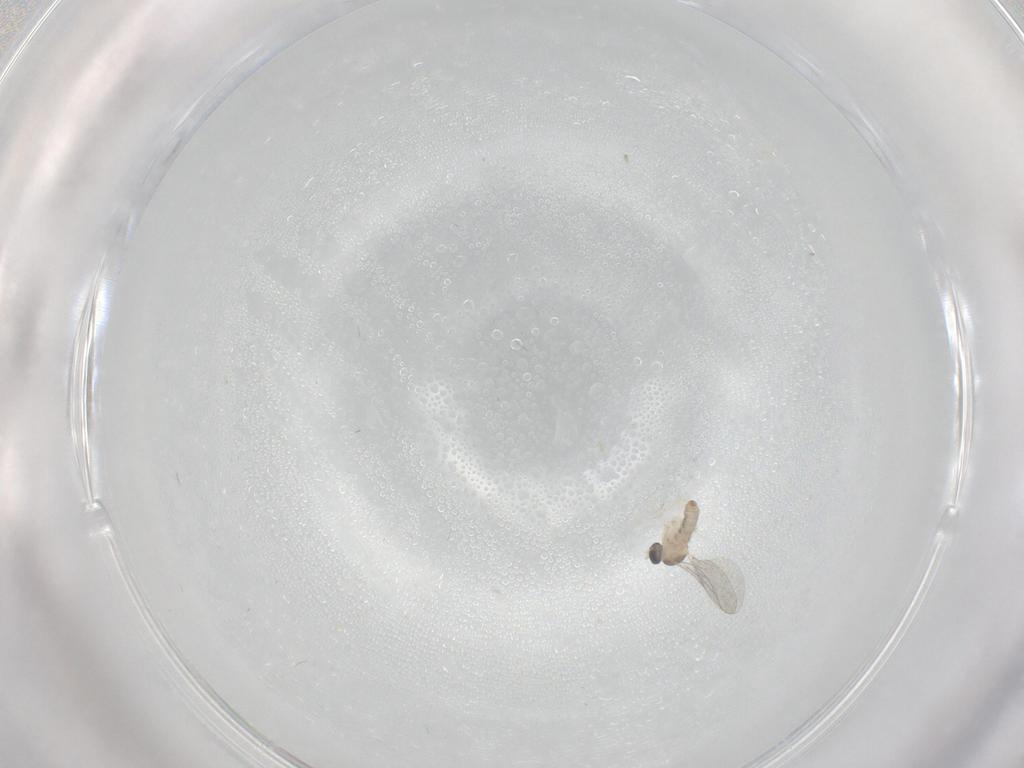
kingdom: Animalia
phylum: Arthropoda
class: Insecta
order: Diptera
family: Cecidomyiidae
